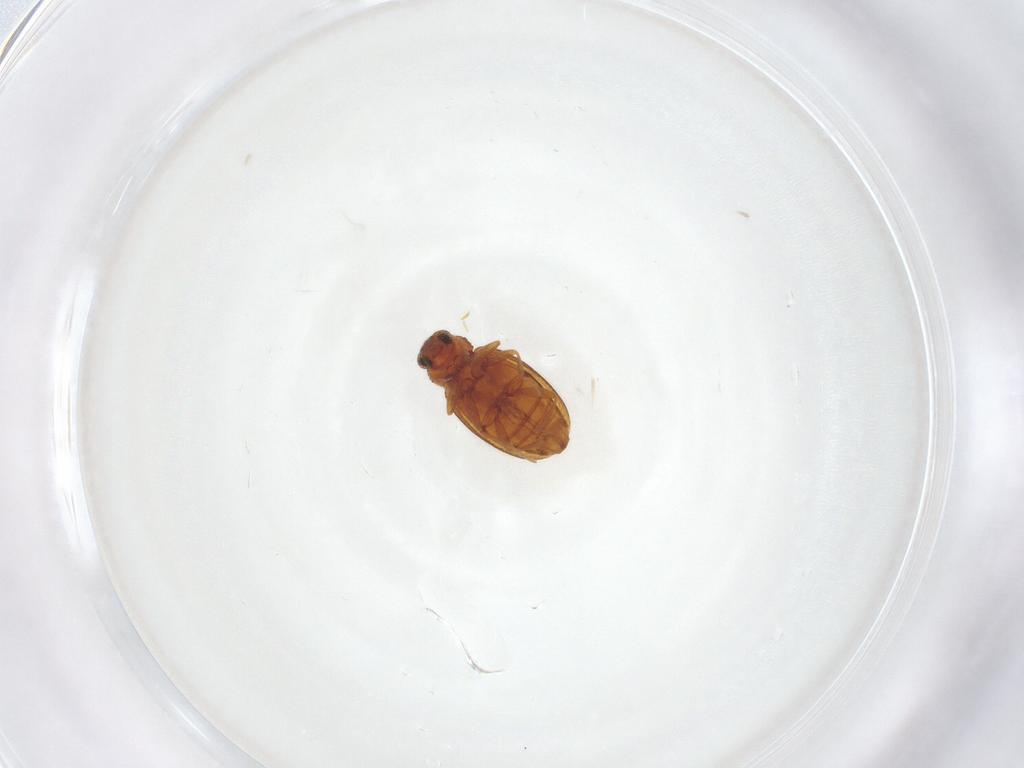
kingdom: Animalia
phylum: Arthropoda
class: Insecta
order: Coleoptera
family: Latridiidae
